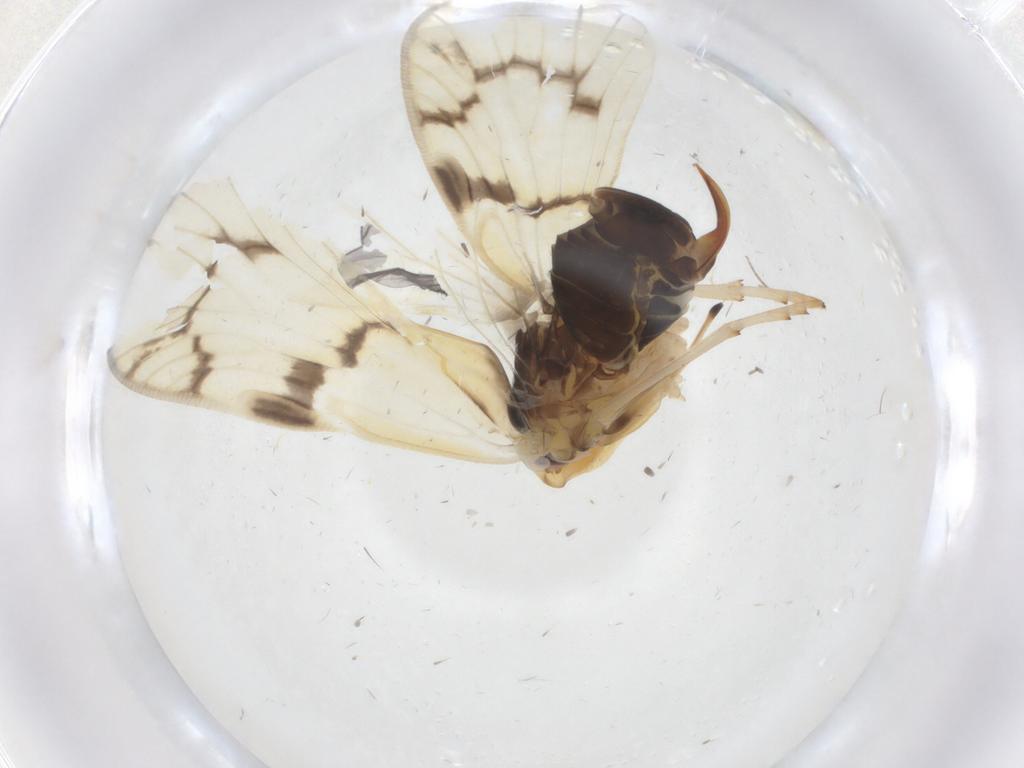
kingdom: Animalia
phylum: Arthropoda
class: Insecta
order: Hemiptera
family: Cixiidae
